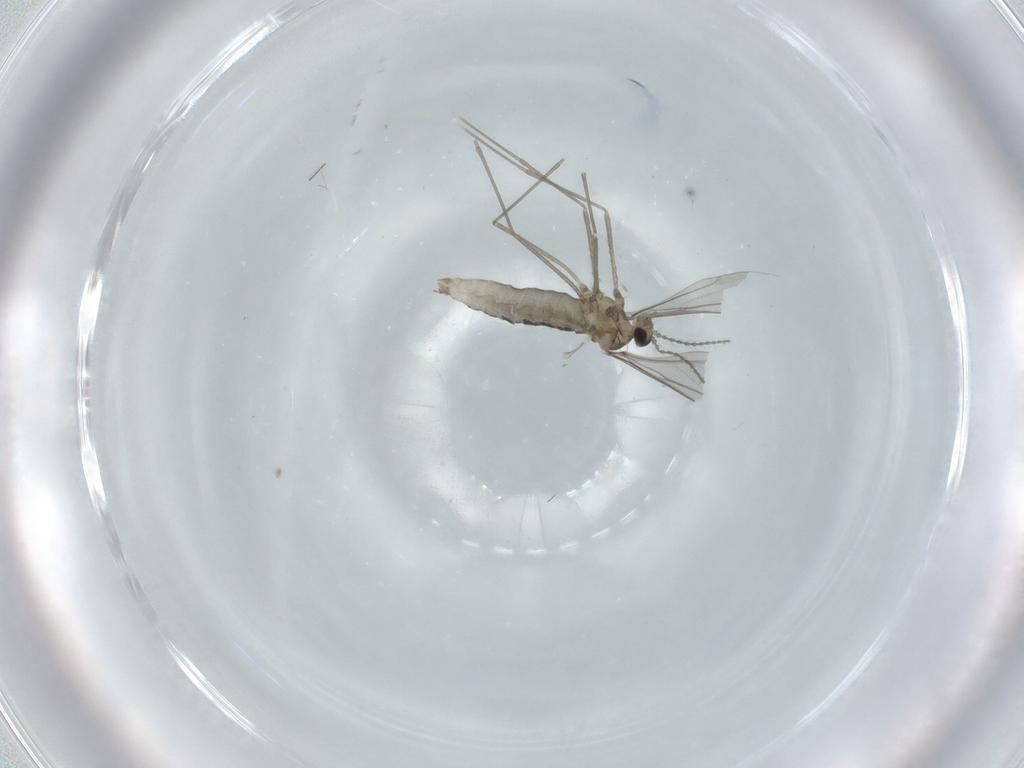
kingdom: Animalia
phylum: Arthropoda
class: Insecta
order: Diptera
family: Cecidomyiidae
